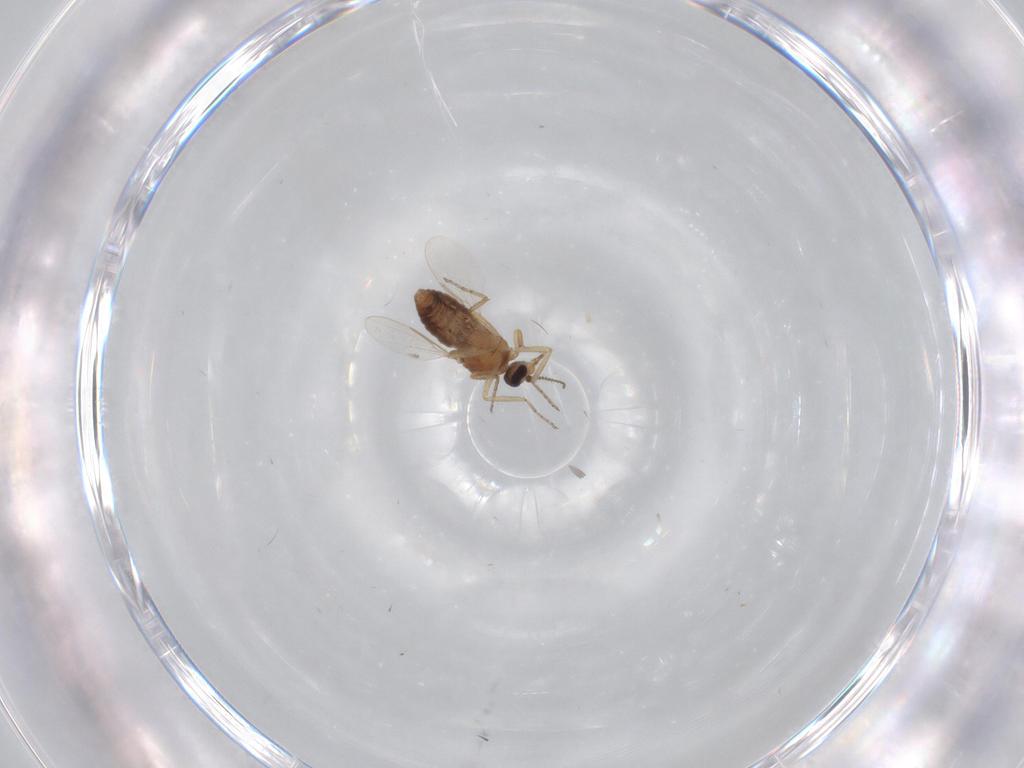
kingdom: Animalia
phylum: Arthropoda
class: Insecta
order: Diptera
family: Ceratopogonidae
